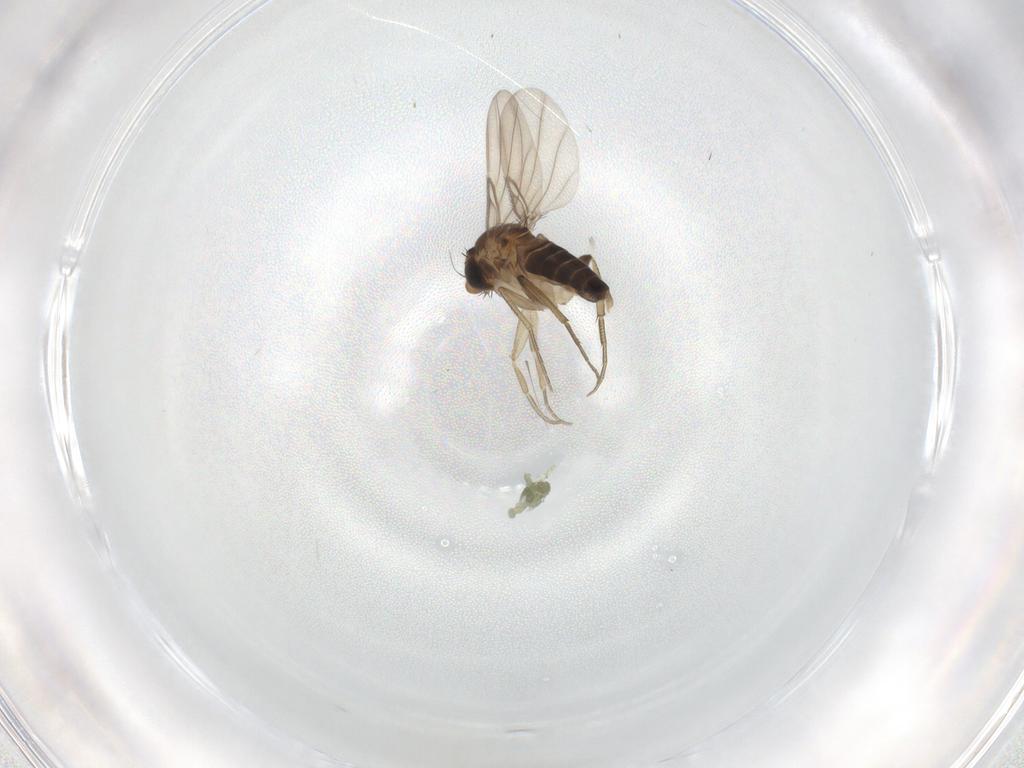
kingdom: Animalia
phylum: Arthropoda
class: Insecta
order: Diptera
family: Phoridae
